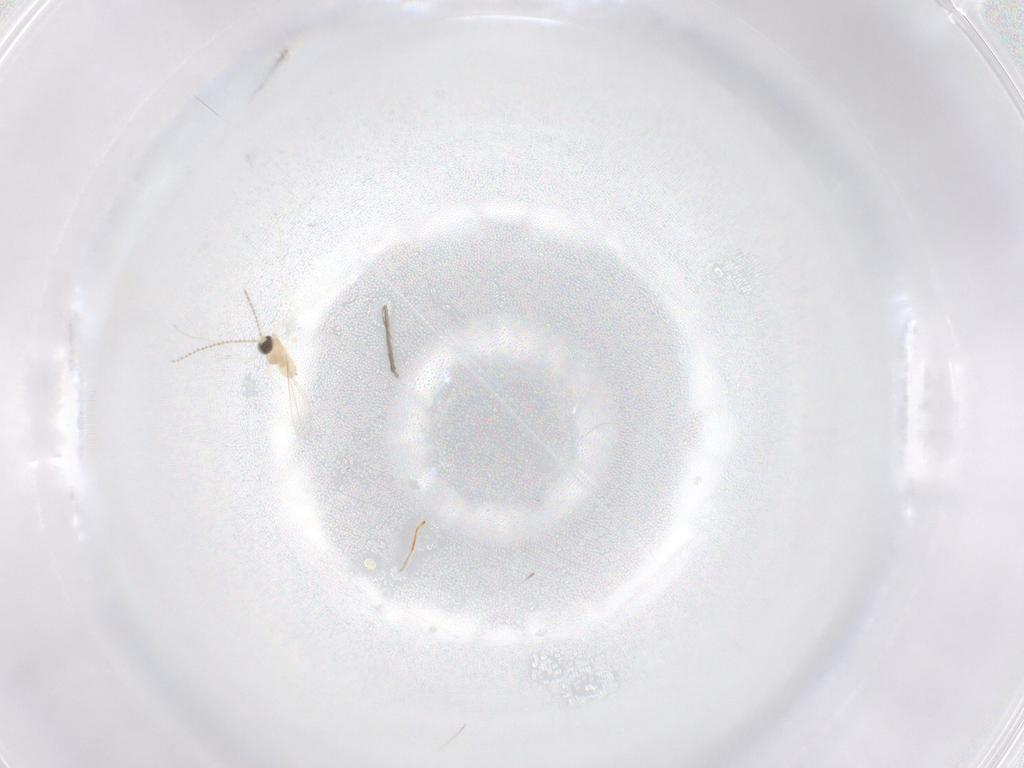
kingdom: Animalia
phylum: Arthropoda
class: Insecta
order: Diptera
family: Cecidomyiidae
